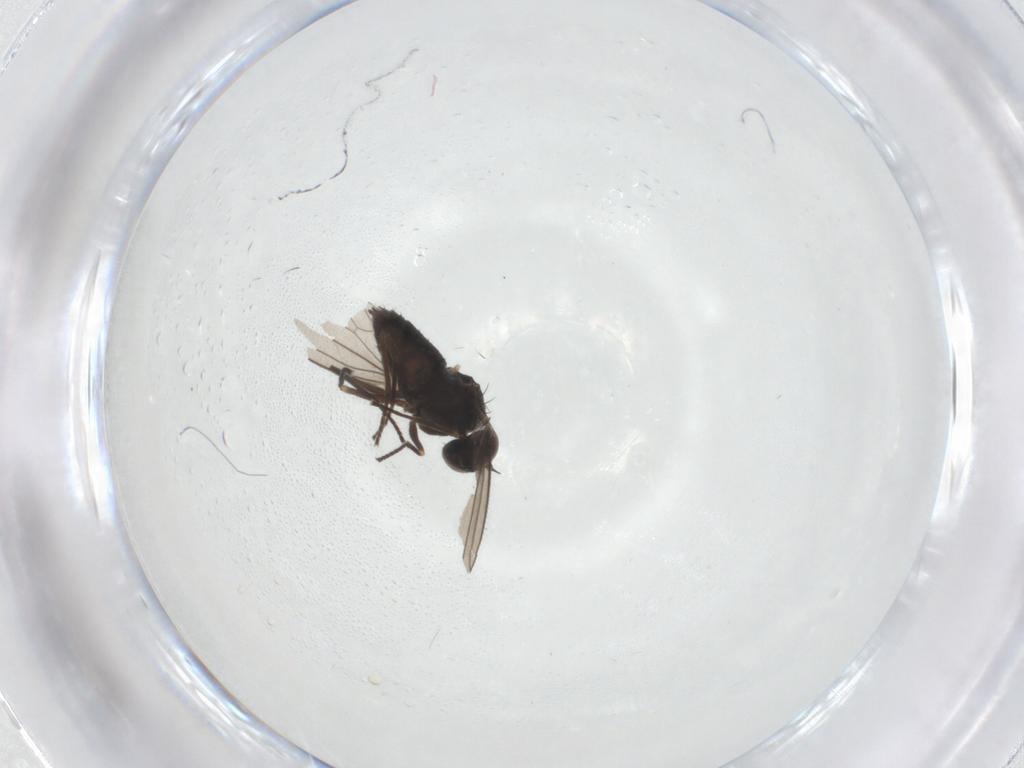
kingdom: Animalia
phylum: Arthropoda
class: Insecta
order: Diptera
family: Dolichopodidae
